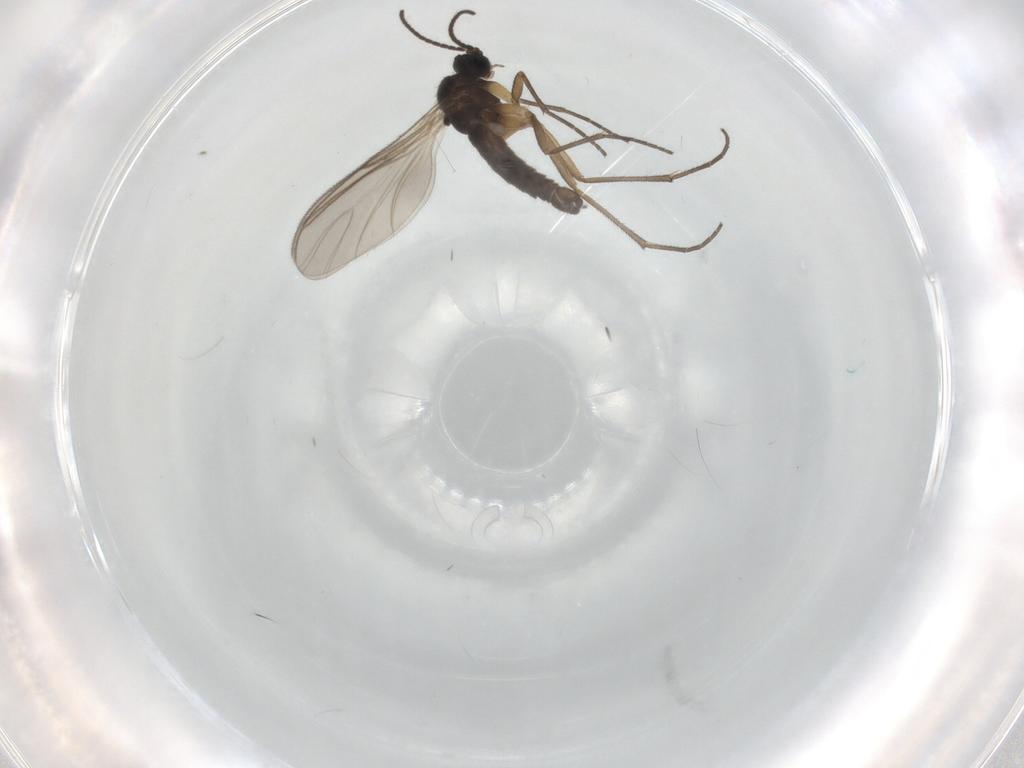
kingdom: Animalia
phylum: Arthropoda
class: Insecta
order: Diptera
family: Sciaridae
